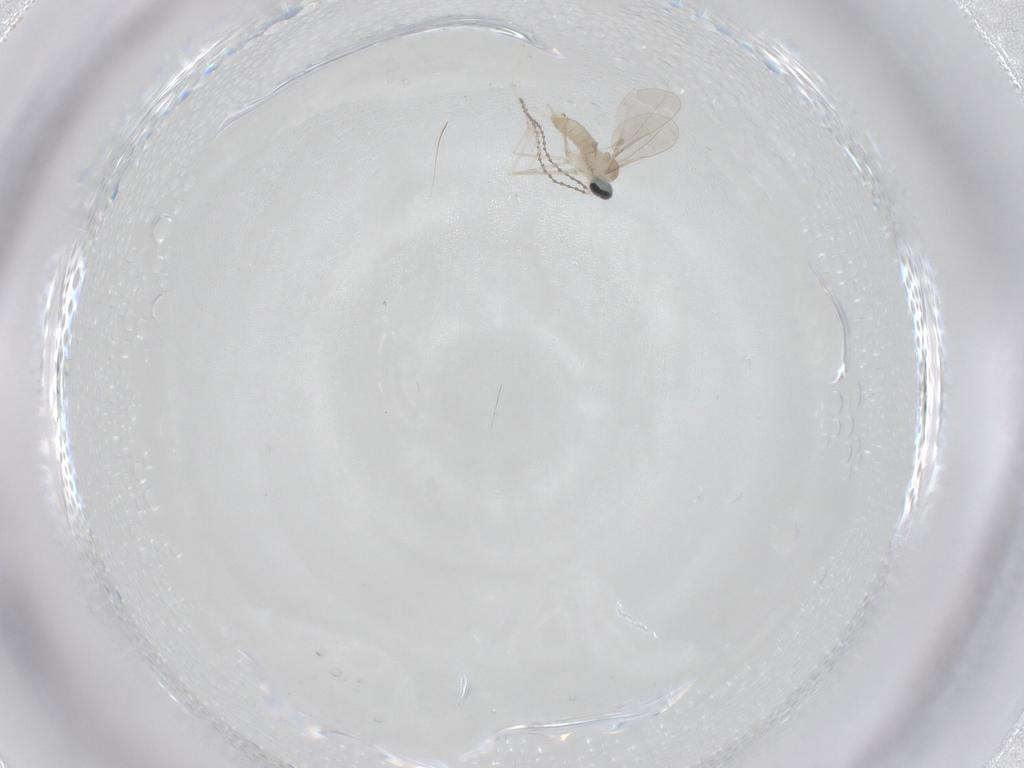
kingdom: Animalia
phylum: Arthropoda
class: Insecta
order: Diptera
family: Cecidomyiidae
